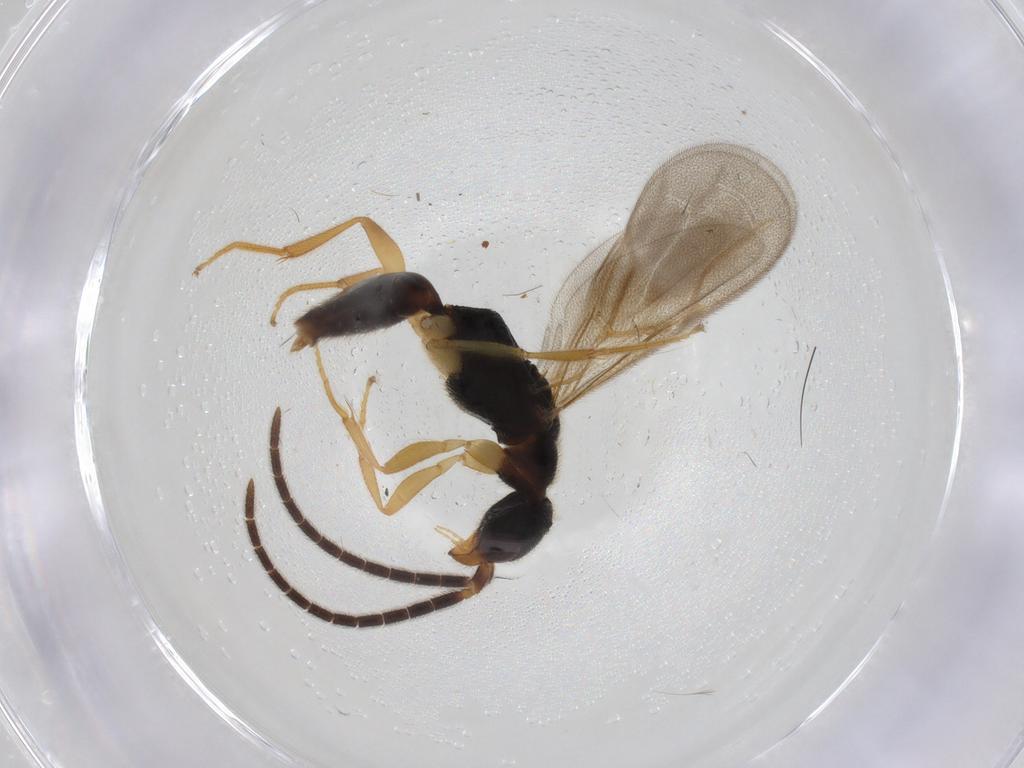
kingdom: Animalia
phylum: Arthropoda
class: Insecta
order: Hymenoptera
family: Bethylidae
